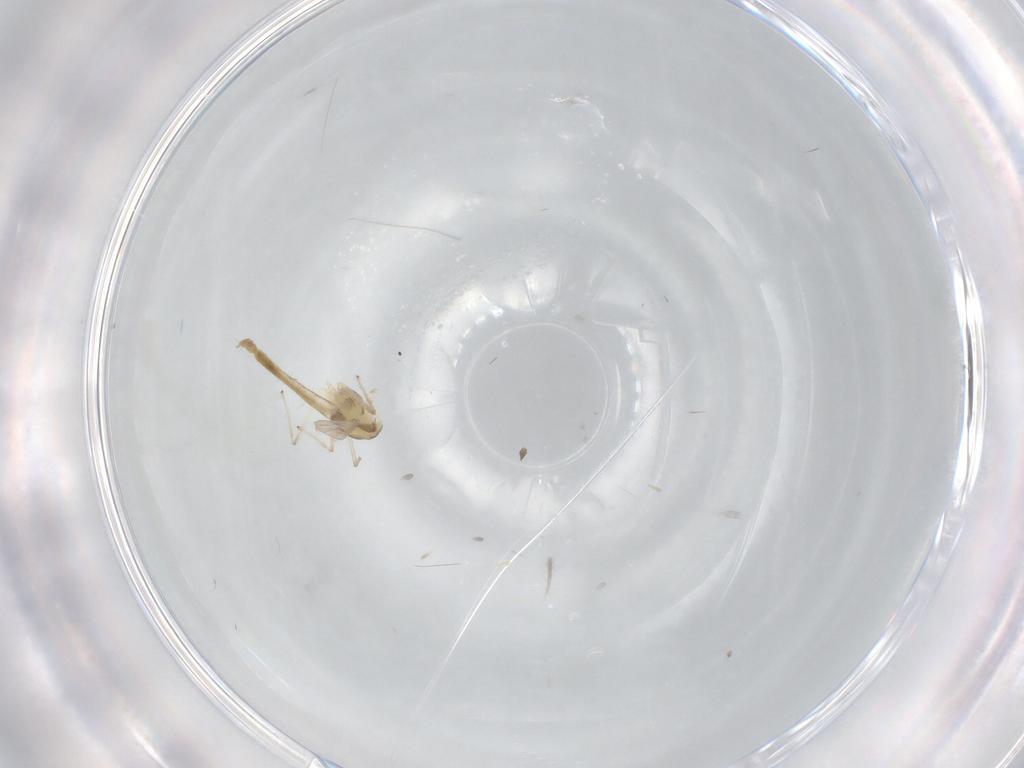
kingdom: Animalia
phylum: Arthropoda
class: Insecta
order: Diptera
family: Chironomidae
